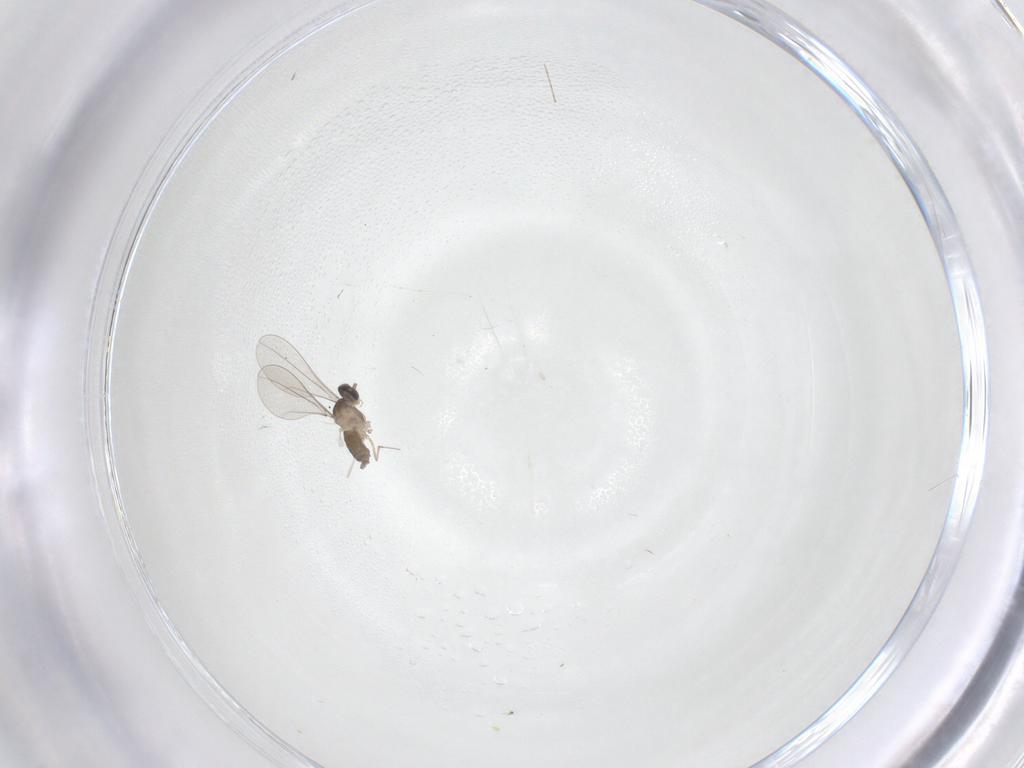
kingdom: Animalia
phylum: Arthropoda
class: Insecta
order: Diptera
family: Cecidomyiidae
